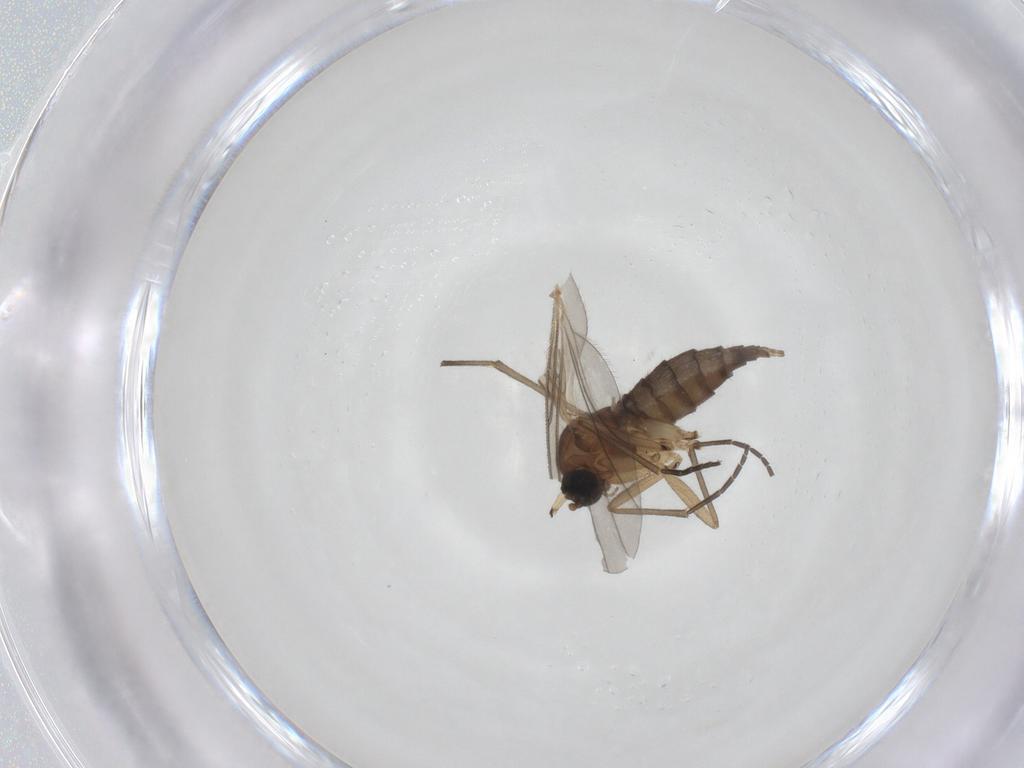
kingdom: Animalia
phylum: Arthropoda
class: Insecta
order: Diptera
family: Sciaridae
